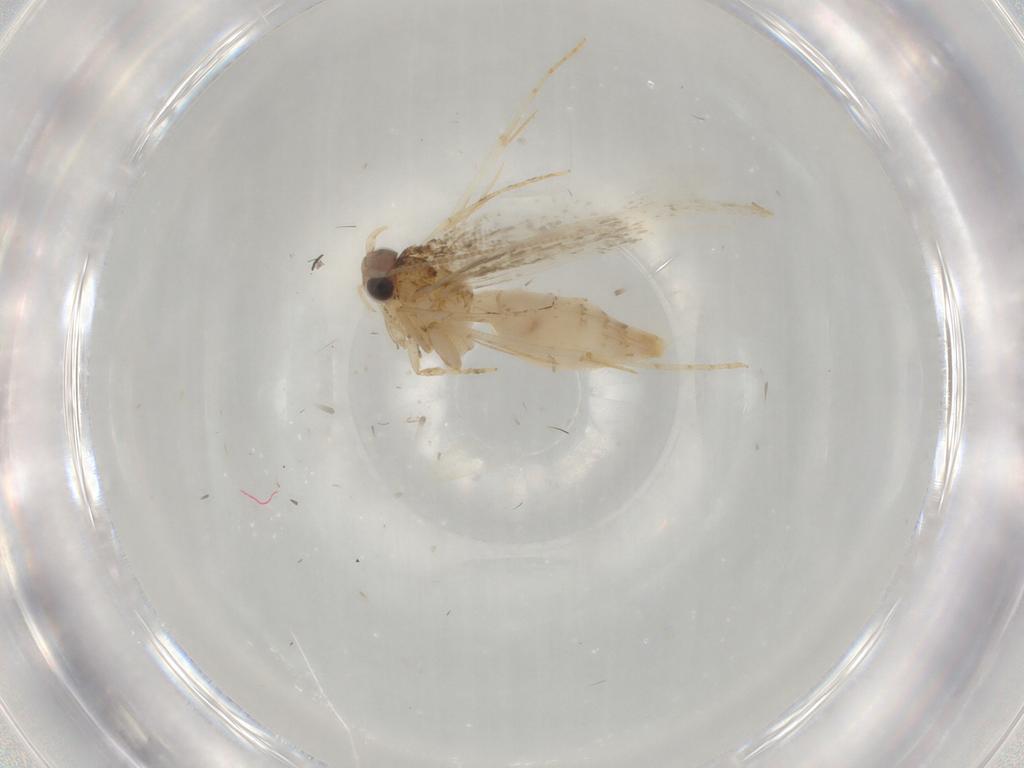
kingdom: Animalia
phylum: Arthropoda
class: Insecta
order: Lepidoptera
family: Tineidae
